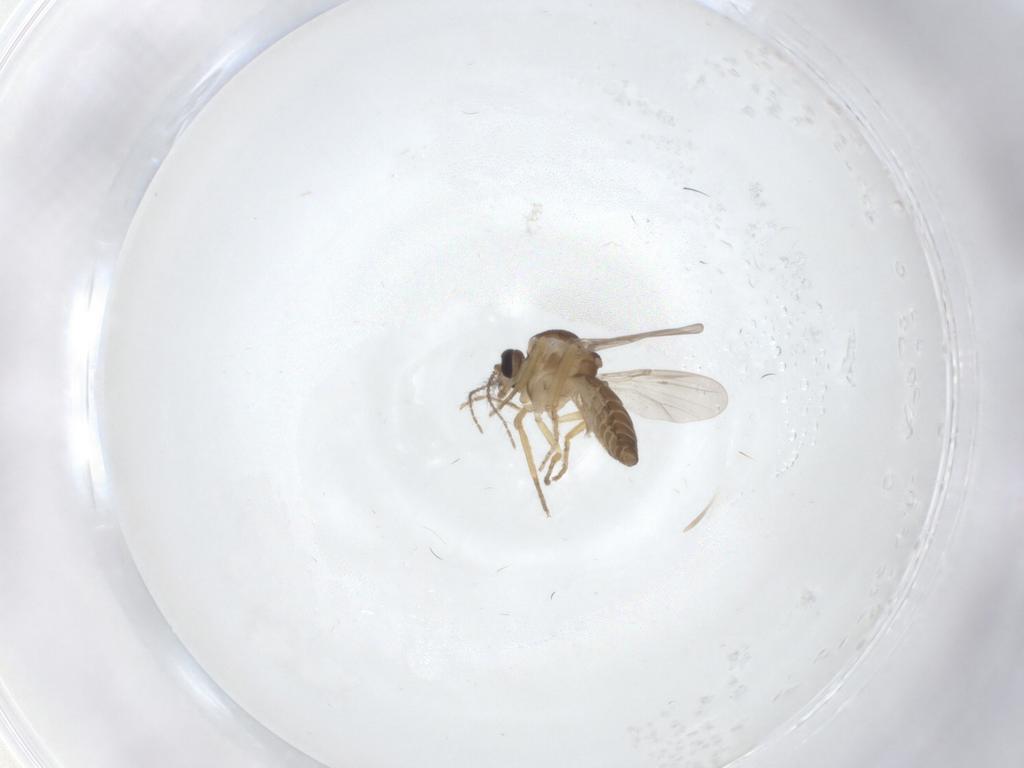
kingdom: Animalia
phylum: Arthropoda
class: Insecta
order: Diptera
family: Ceratopogonidae
